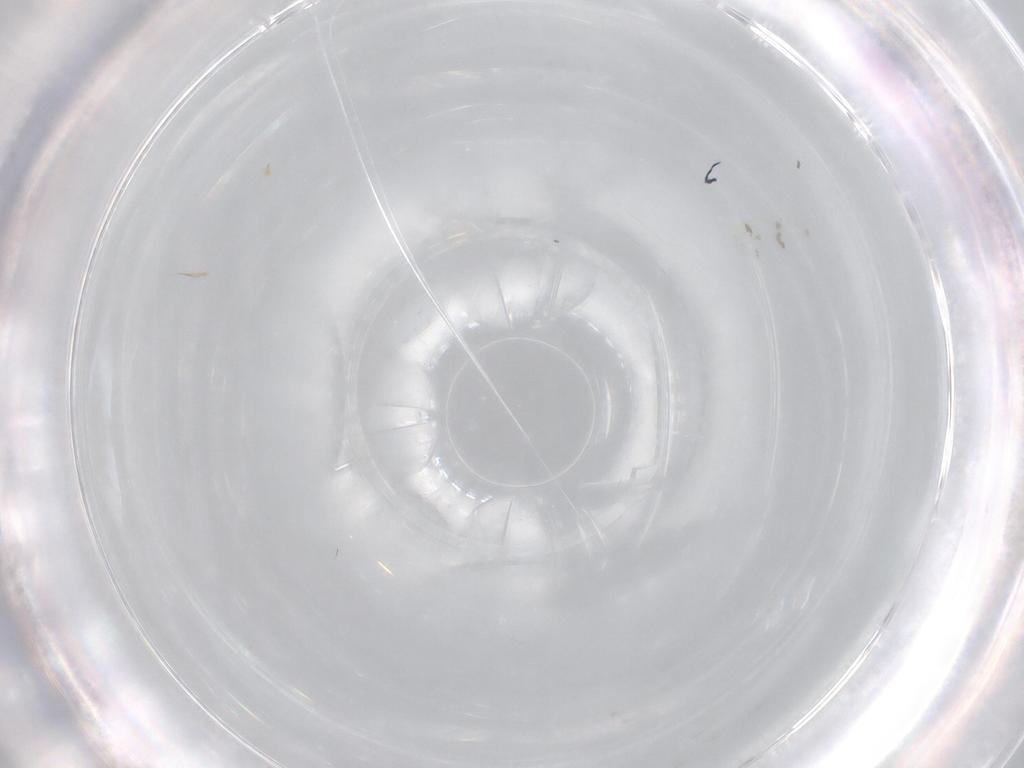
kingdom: Animalia
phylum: Arthropoda
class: Insecta
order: Hemiptera
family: Aleyrodidae
